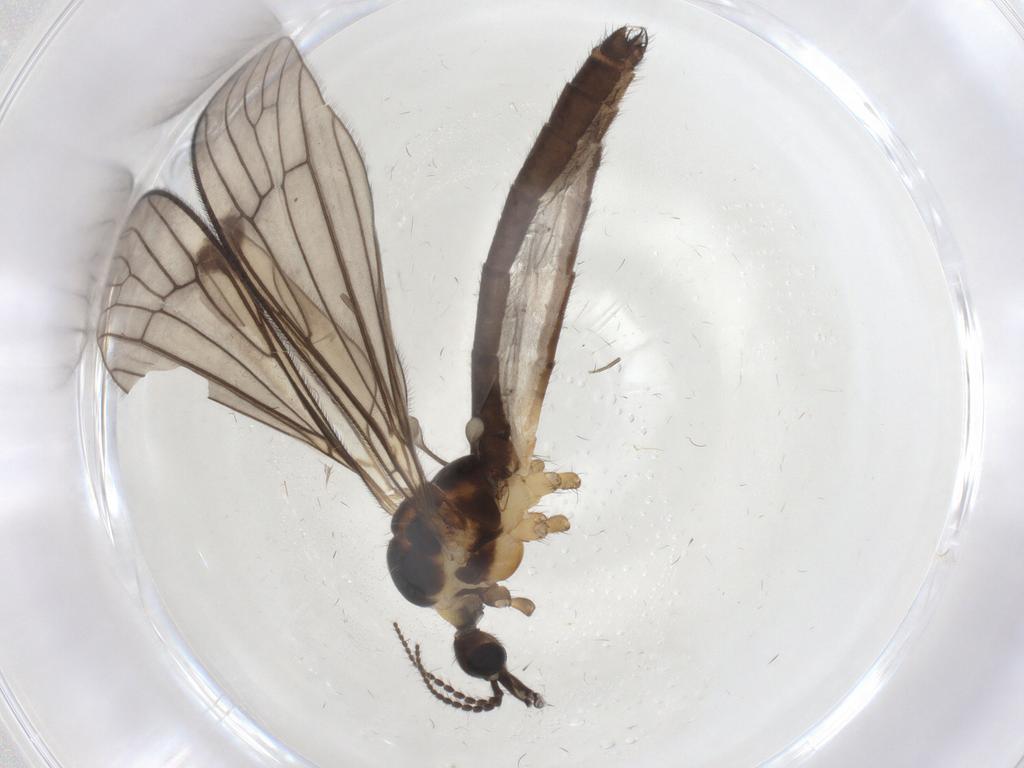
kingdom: Animalia
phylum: Arthropoda
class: Insecta
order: Diptera
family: Limoniidae
